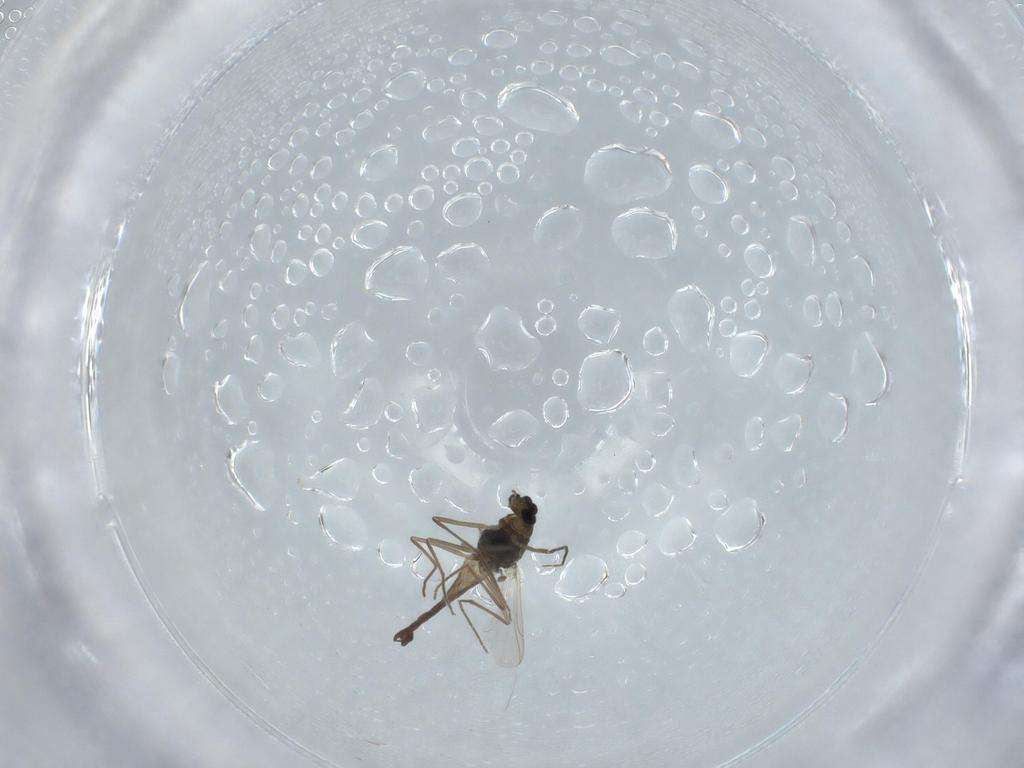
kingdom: Animalia
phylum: Arthropoda
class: Insecta
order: Diptera
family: Chironomidae
